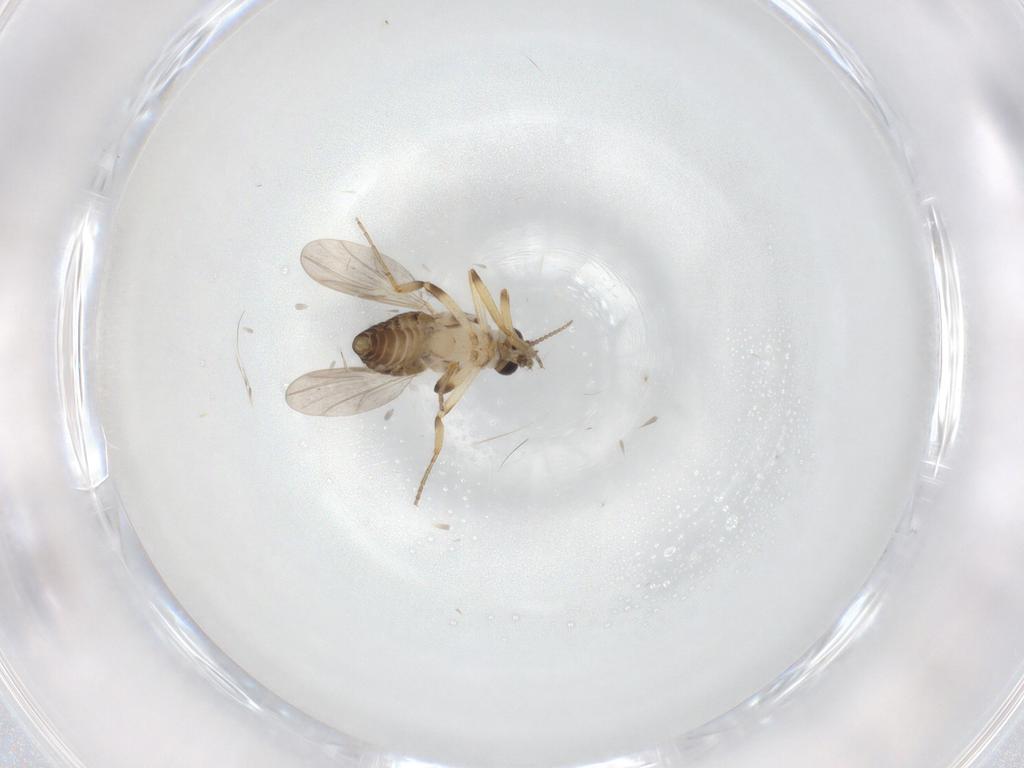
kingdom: Animalia
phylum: Arthropoda
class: Insecta
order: Diptera
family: Ceratopogonidae
